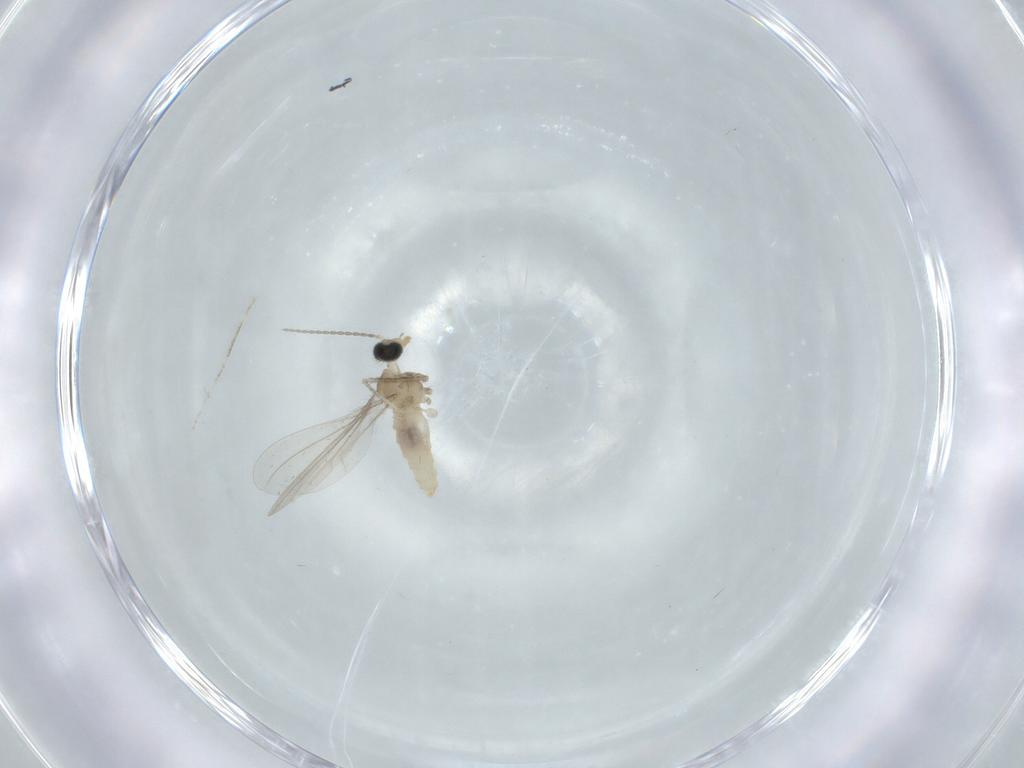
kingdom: Animalia
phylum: Arthropoda
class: Insecta
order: Diptera
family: Cecidomyiidae
